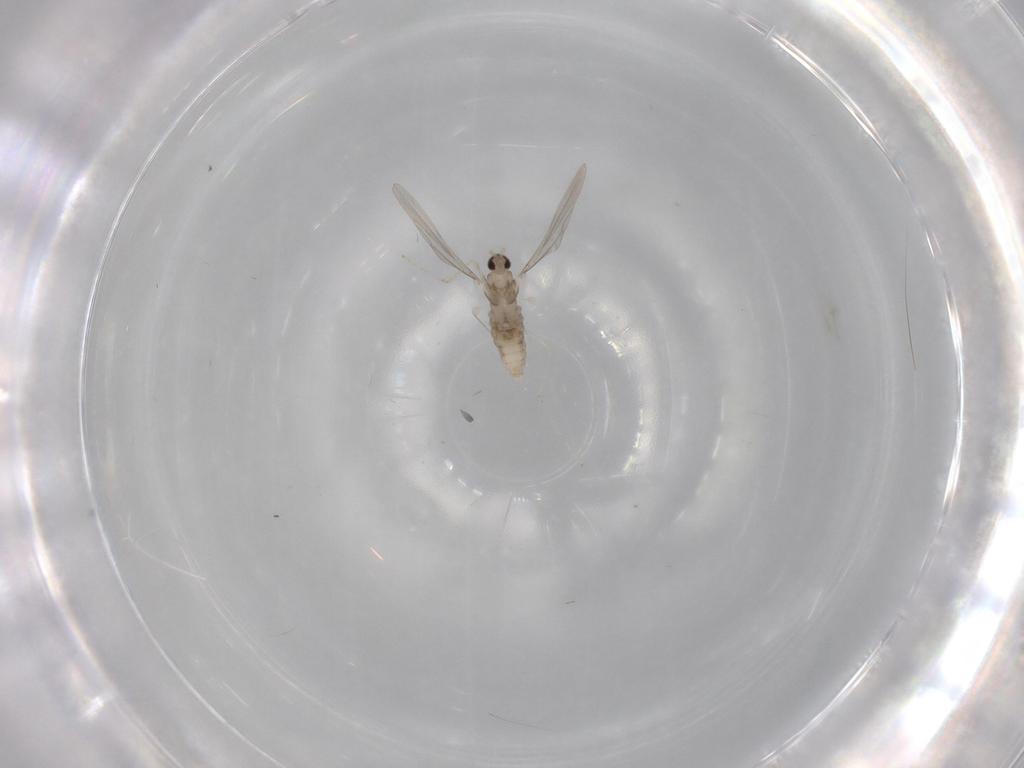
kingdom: Animalia
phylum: Arthropoda
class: Insecta
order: Diptera
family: Cecidomyiidae
